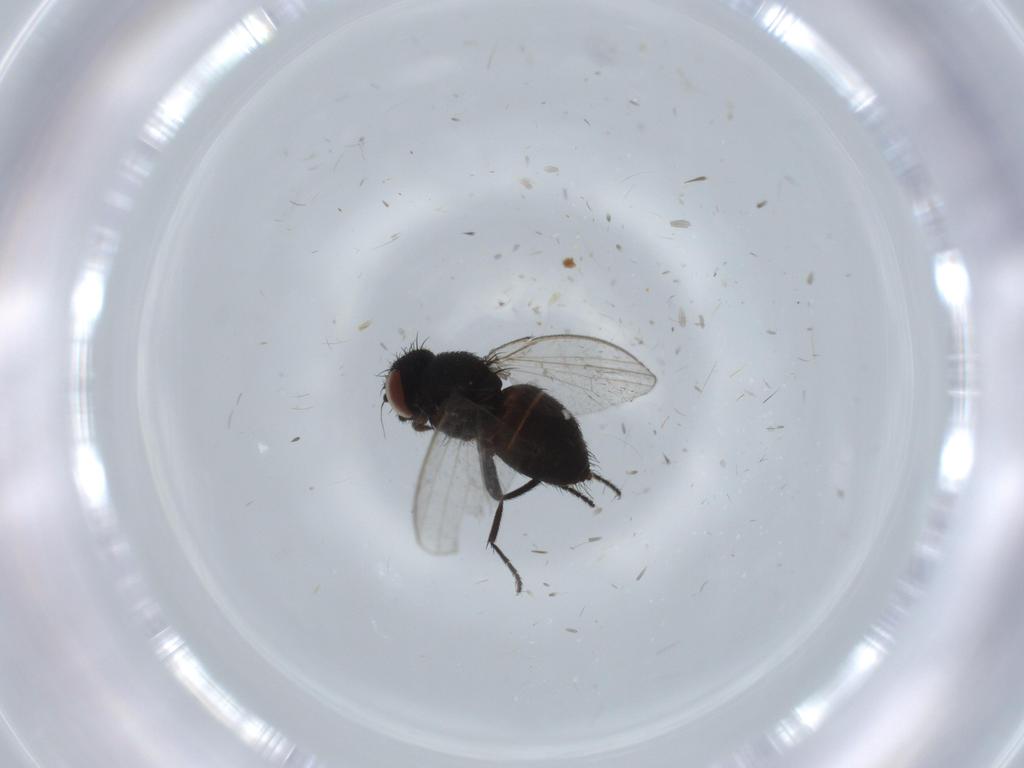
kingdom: Animalia
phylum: Arthropoda
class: Insecta
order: Diptera
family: Milichiidae
